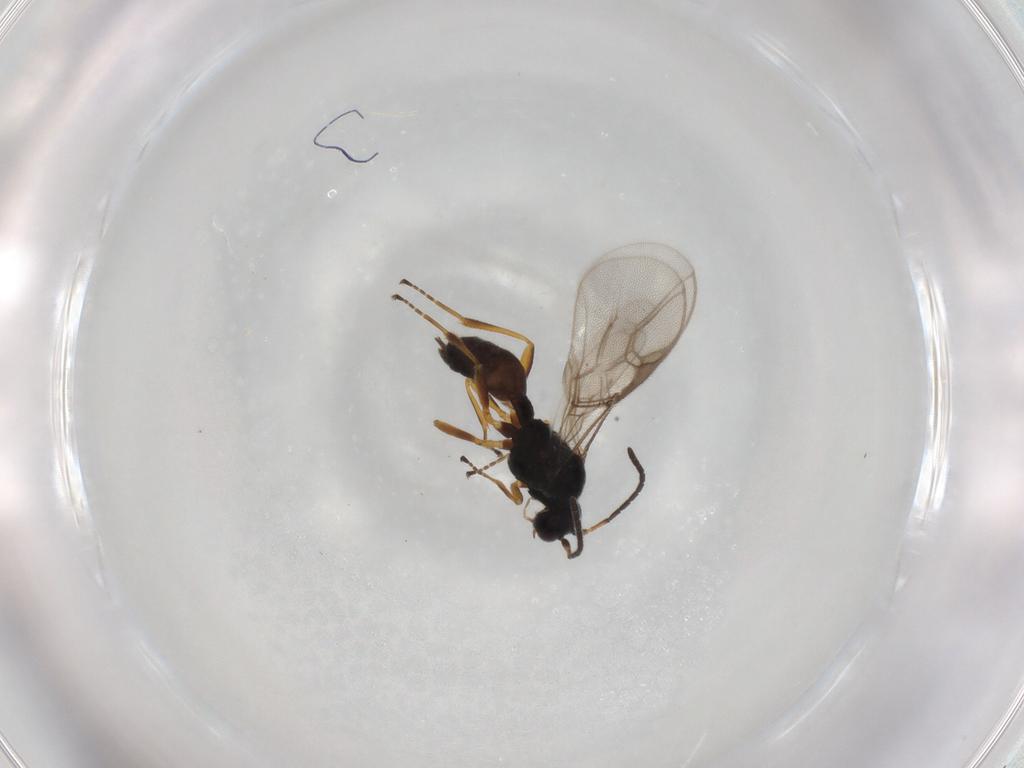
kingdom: Animalia
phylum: Arthropoda
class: Insecta
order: Hymenoptera
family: Braconidae
